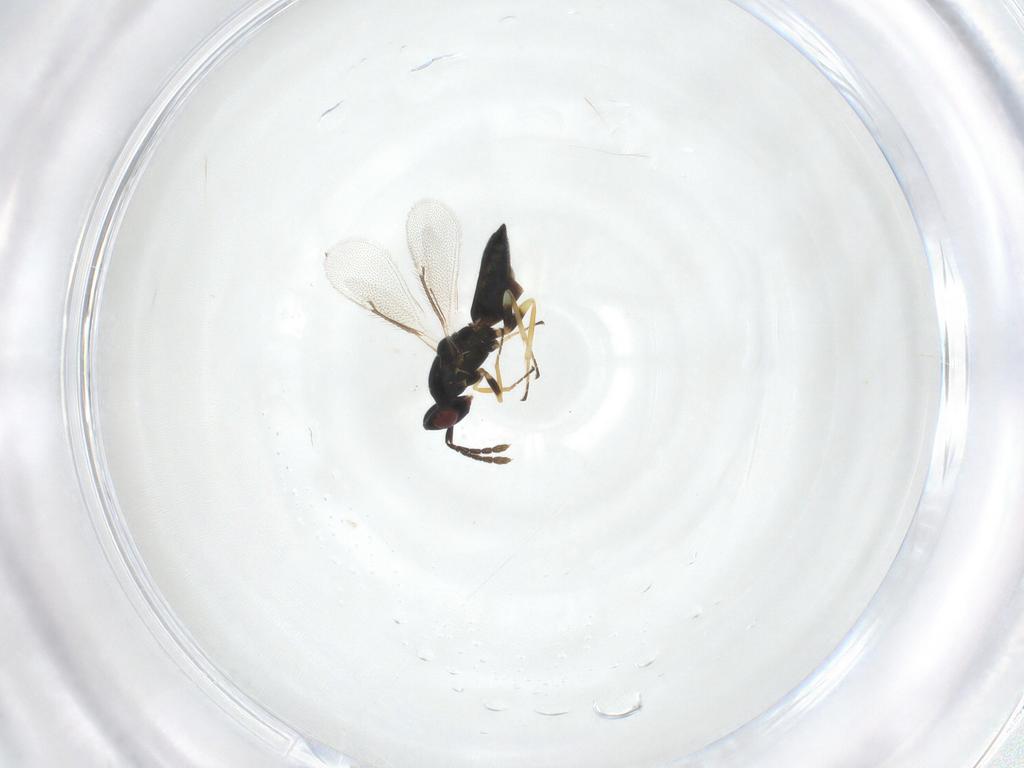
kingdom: Animalia
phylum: Arthropoda
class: Insecta
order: Hymenoptera
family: Eulophidae
